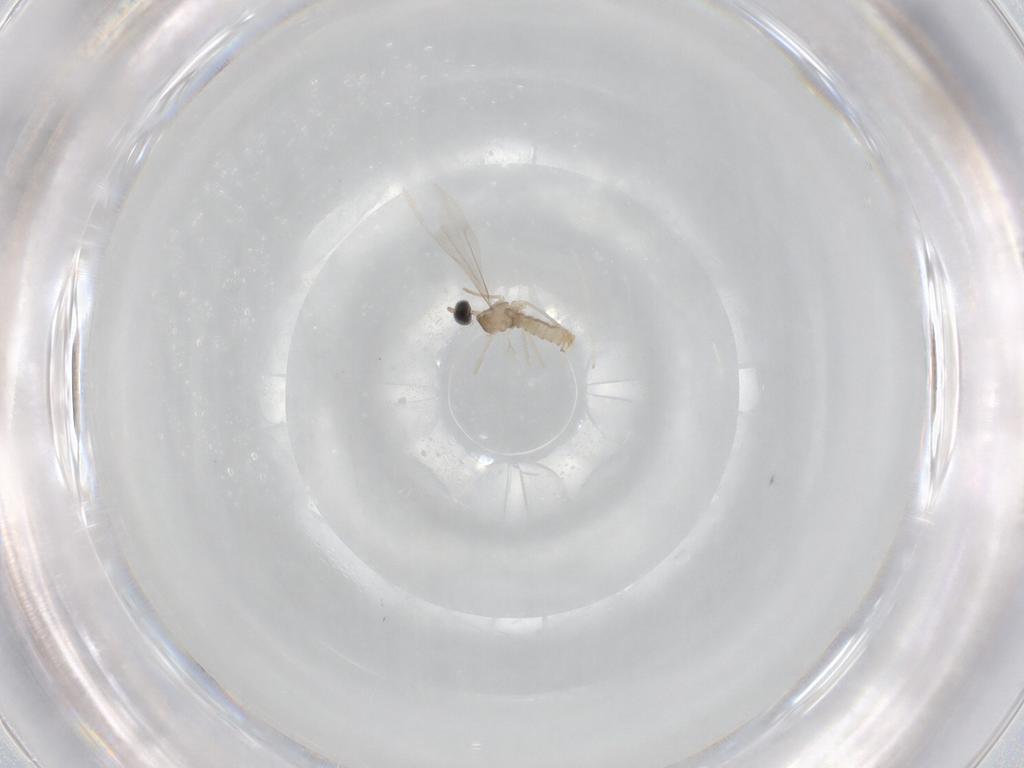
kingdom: Animalia
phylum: Arthropoda
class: Insecta
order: Diptera
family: Cecidomyiidae
